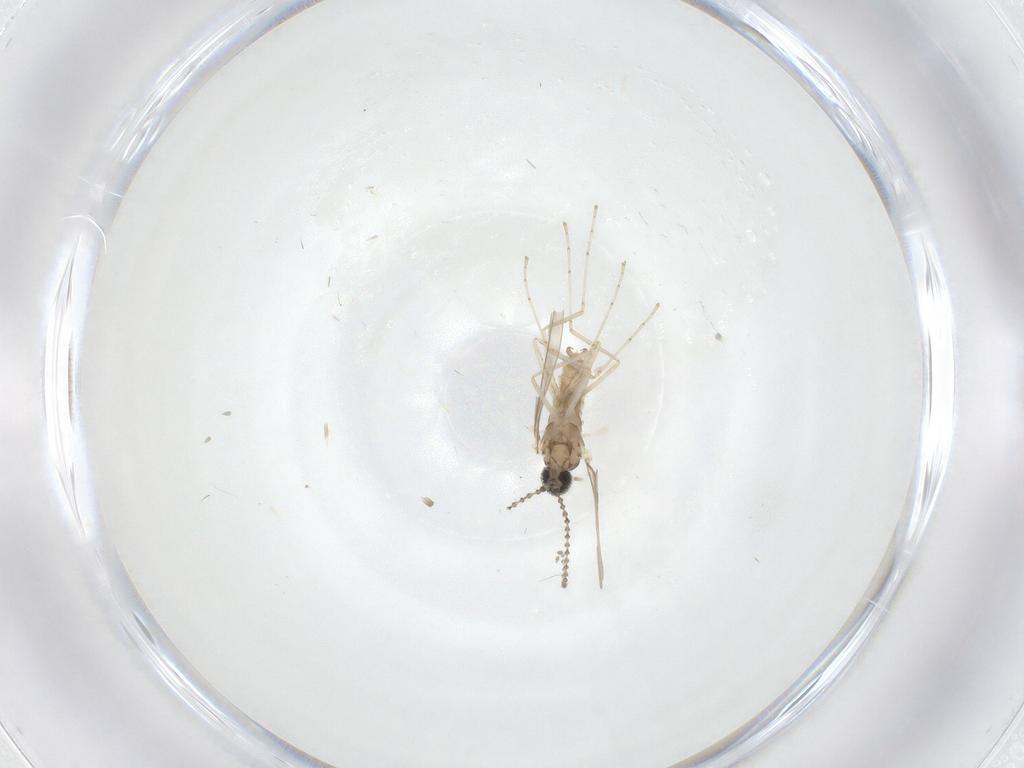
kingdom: Animalia
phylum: Arthropoda
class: Insecta
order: Diptera
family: Cecidomyiidae
